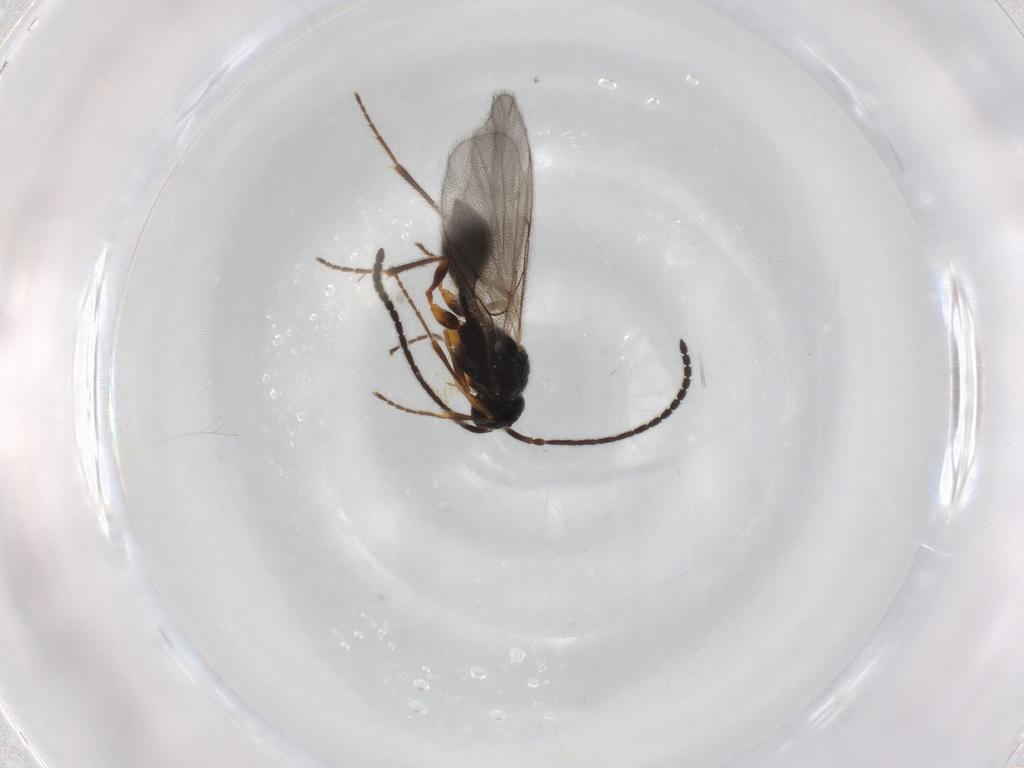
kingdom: Animalia
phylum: Arthropoda
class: Insecta
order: Hymenoptera
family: Diapriidae
